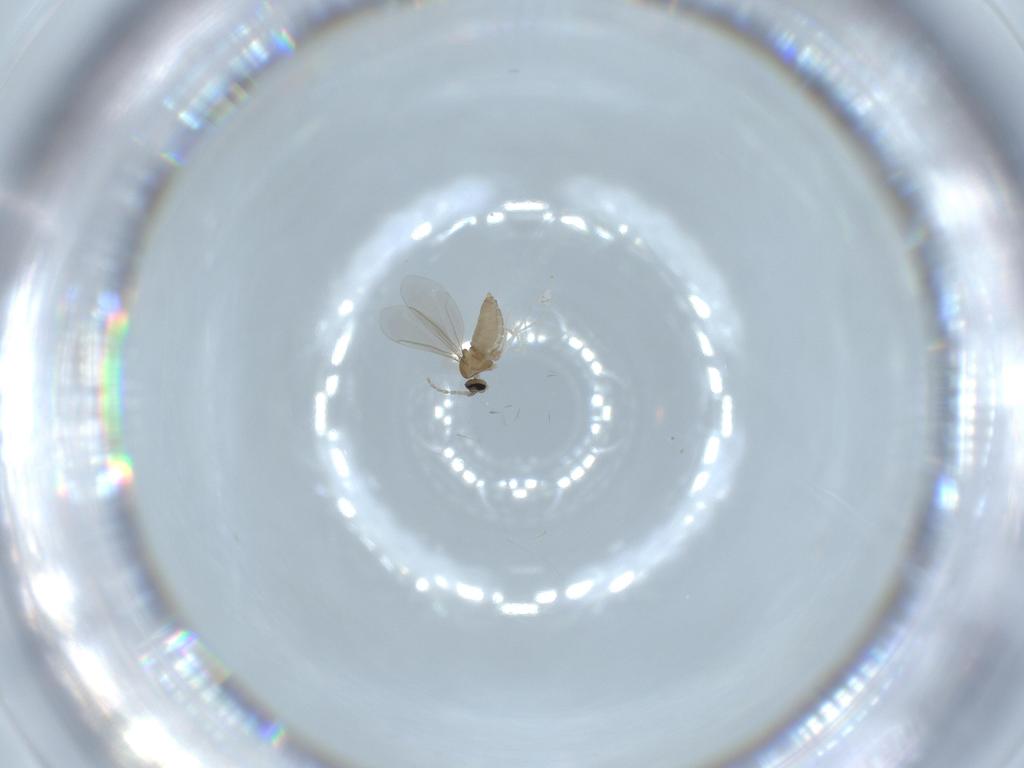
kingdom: Animalia
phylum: Arthropoda
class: Insecta
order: Diptera
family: Cecidomyiidae
